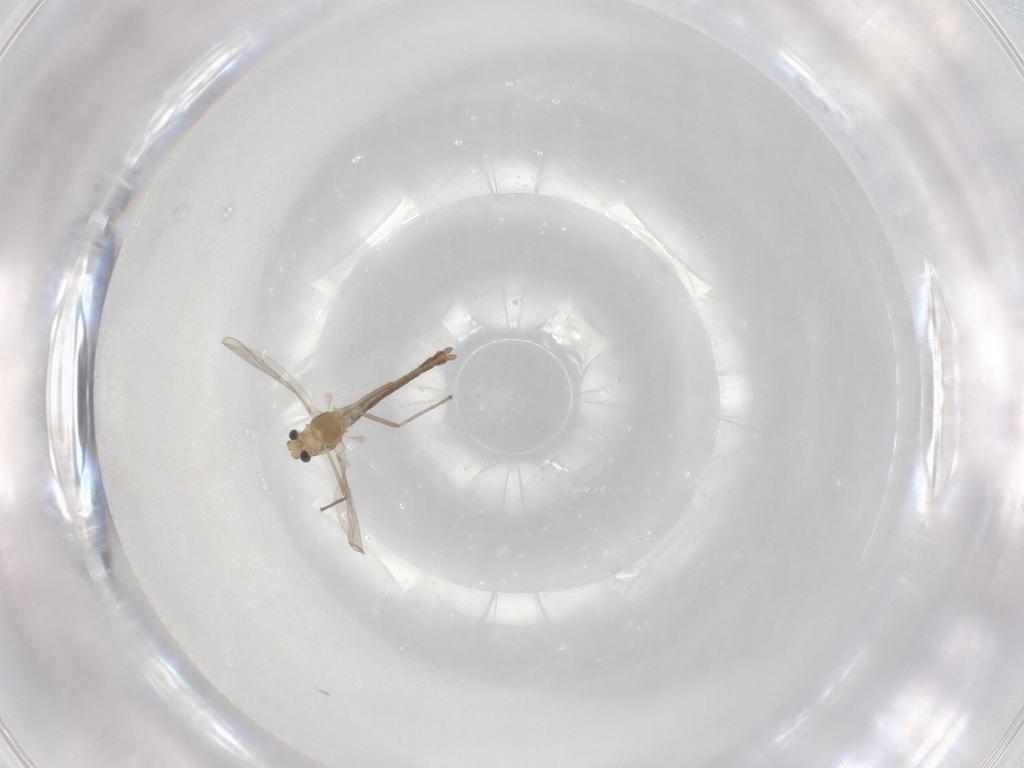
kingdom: Animalia
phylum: Arthropoda
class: Insecta
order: Diptera
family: Chironomidae
